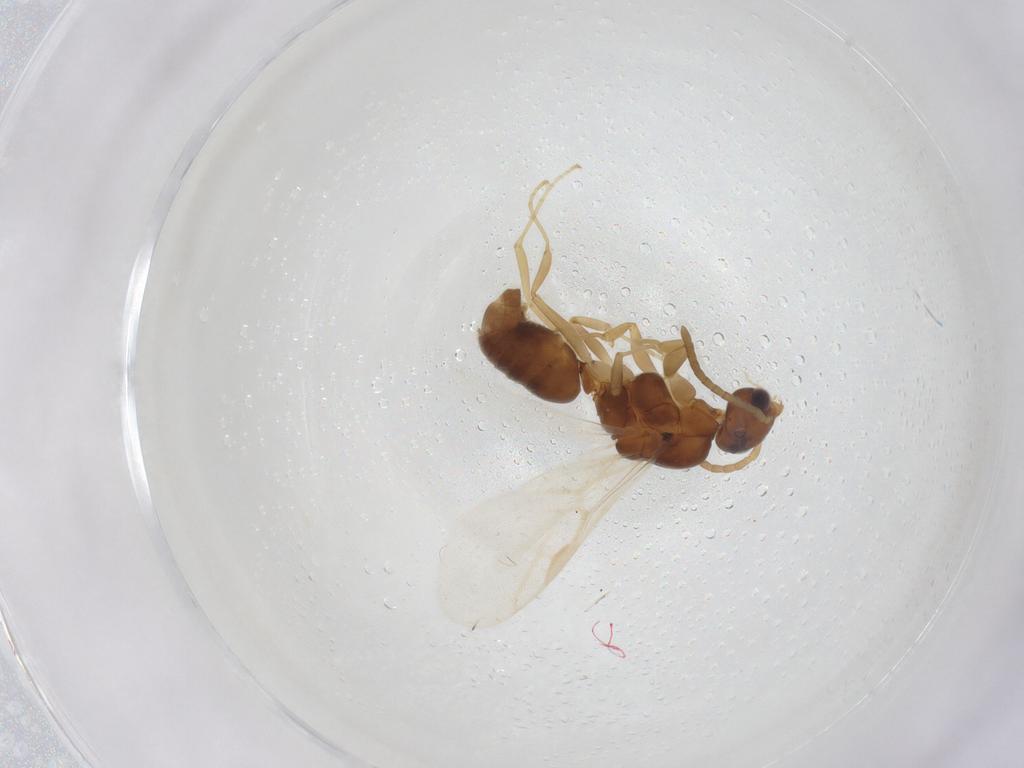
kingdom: Animalia
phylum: Arthropoda
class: Insecta
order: Hymenoptera
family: Formicidae
